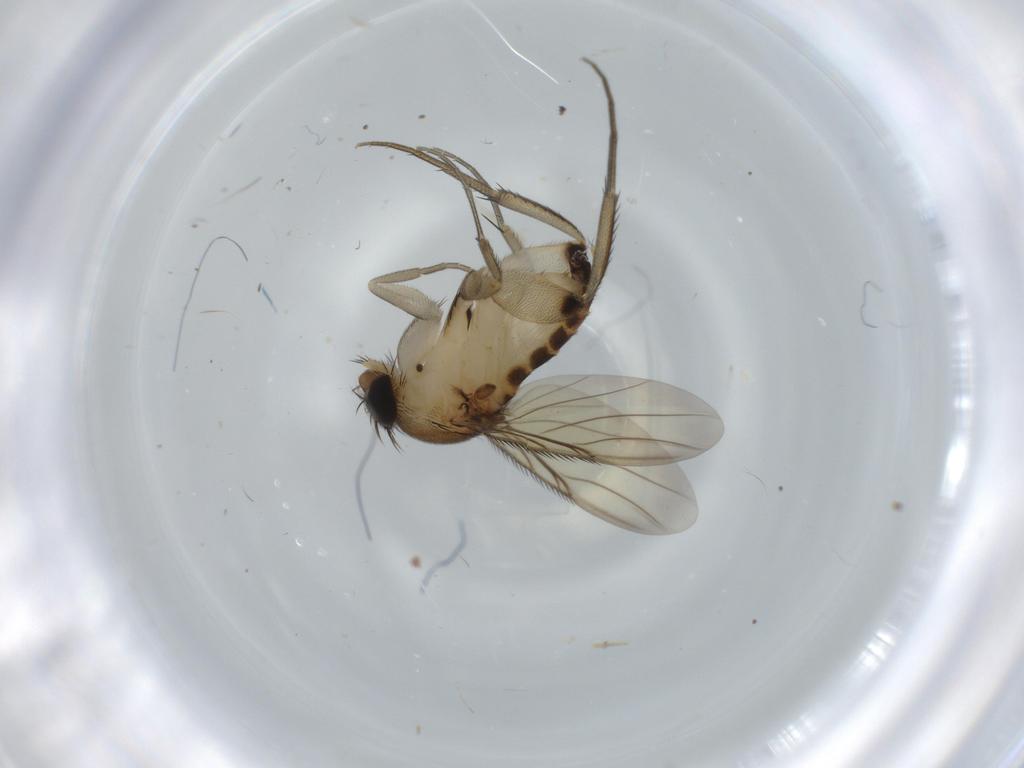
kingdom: Animalia
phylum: Arthropoda
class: Insecta
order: Diptera
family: Phoridae
